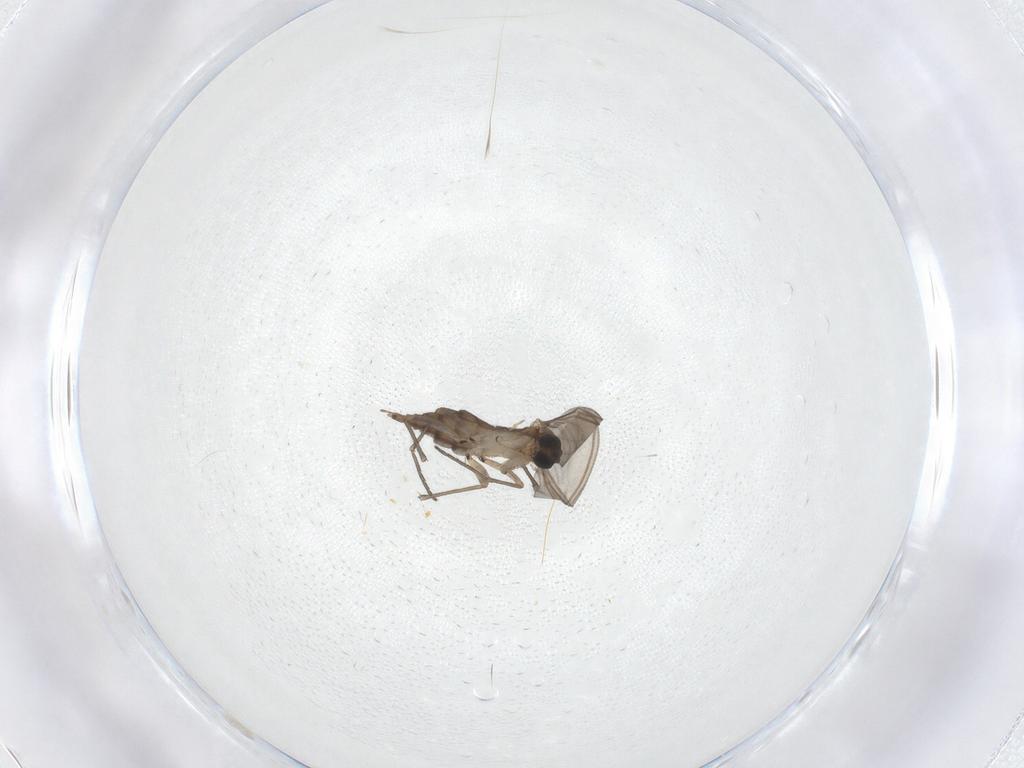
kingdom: Animalia
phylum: Arthropoda
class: Insecta
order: Diptera
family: Sciaridae
